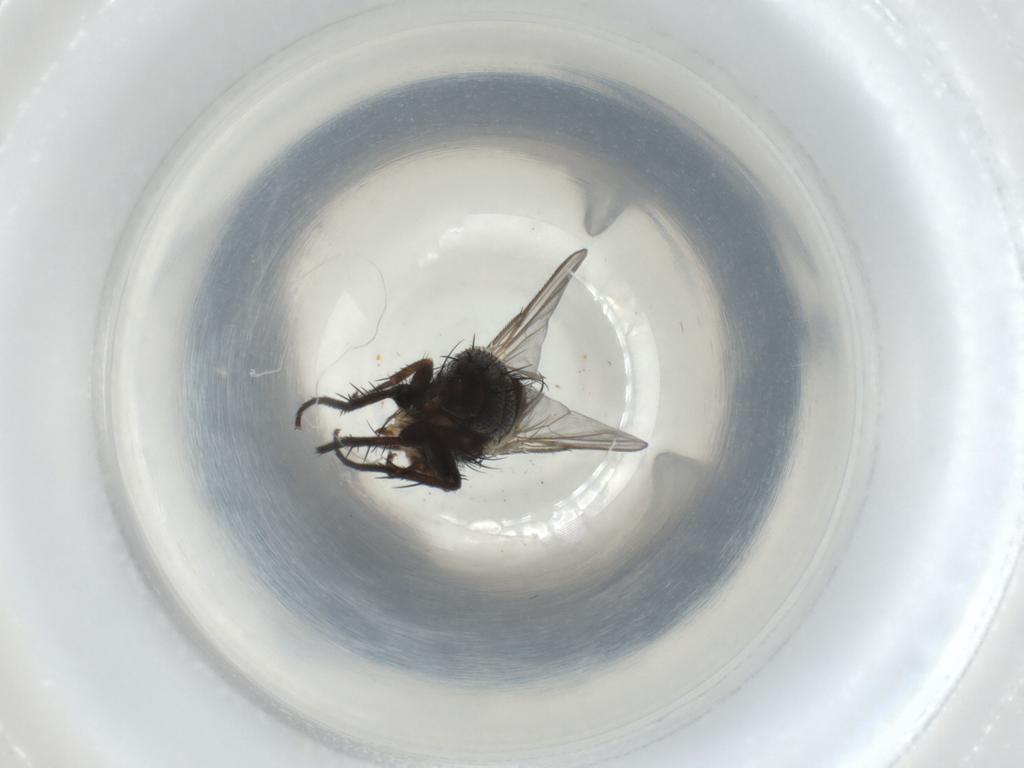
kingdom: Animalia
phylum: Arthropoda
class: Insecta
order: Diptera
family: Tachinidae
